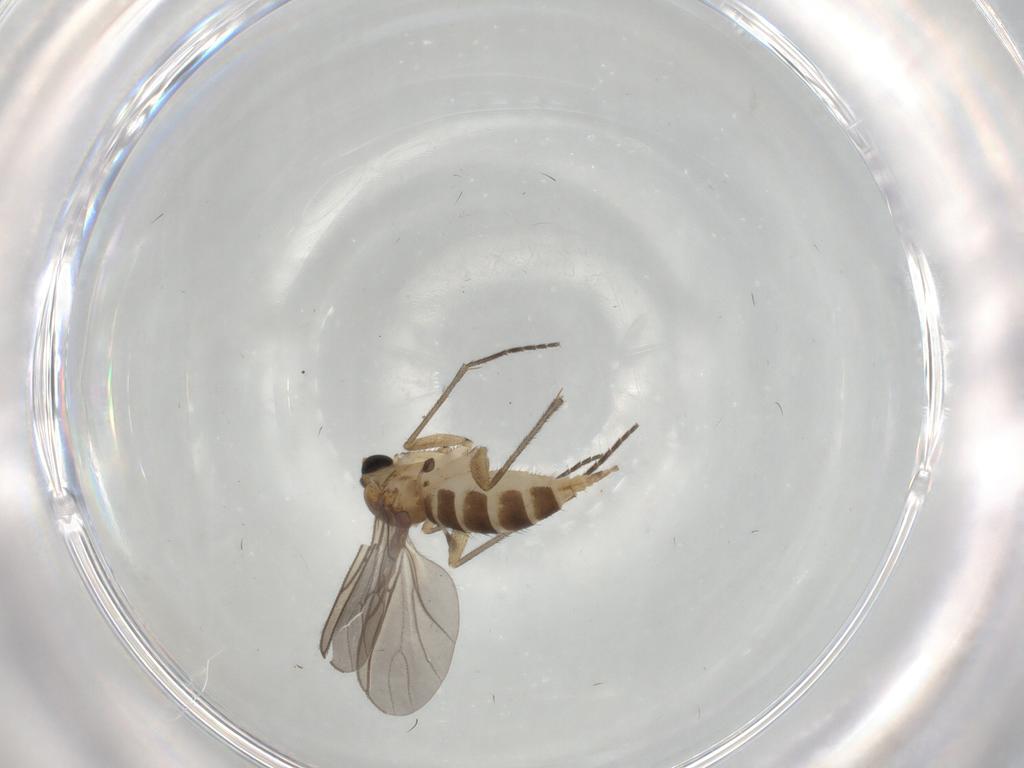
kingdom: Animalia
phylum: Arthropoda
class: Insecta
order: Diptera
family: Sciaridae
